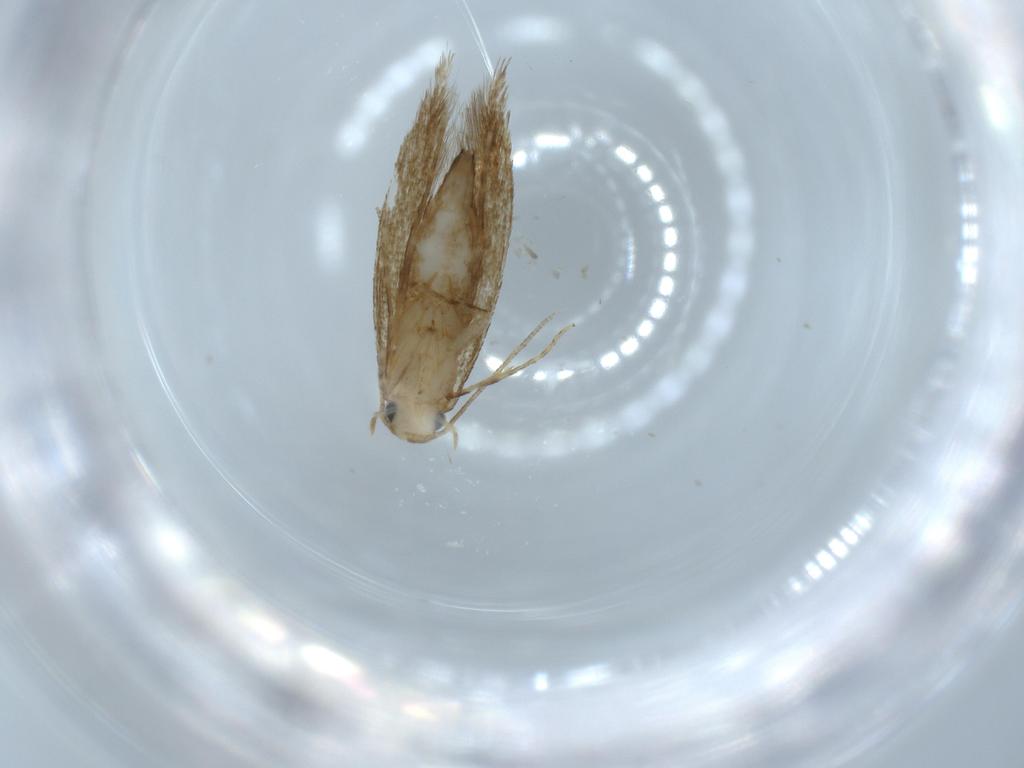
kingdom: Animalia
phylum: Arthropoda
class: Insecta
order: Lepidoptera
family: Tineidae
